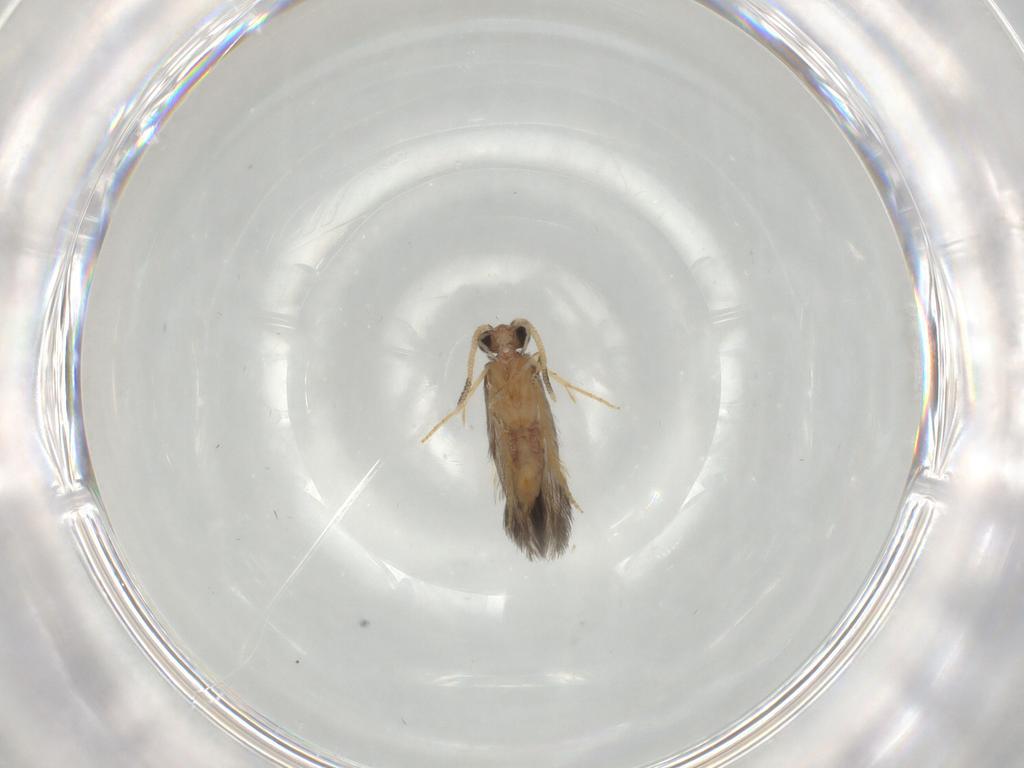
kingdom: Animalia
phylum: Arthropoda
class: Insecta
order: Trichoptera
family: Hydroptilidae
